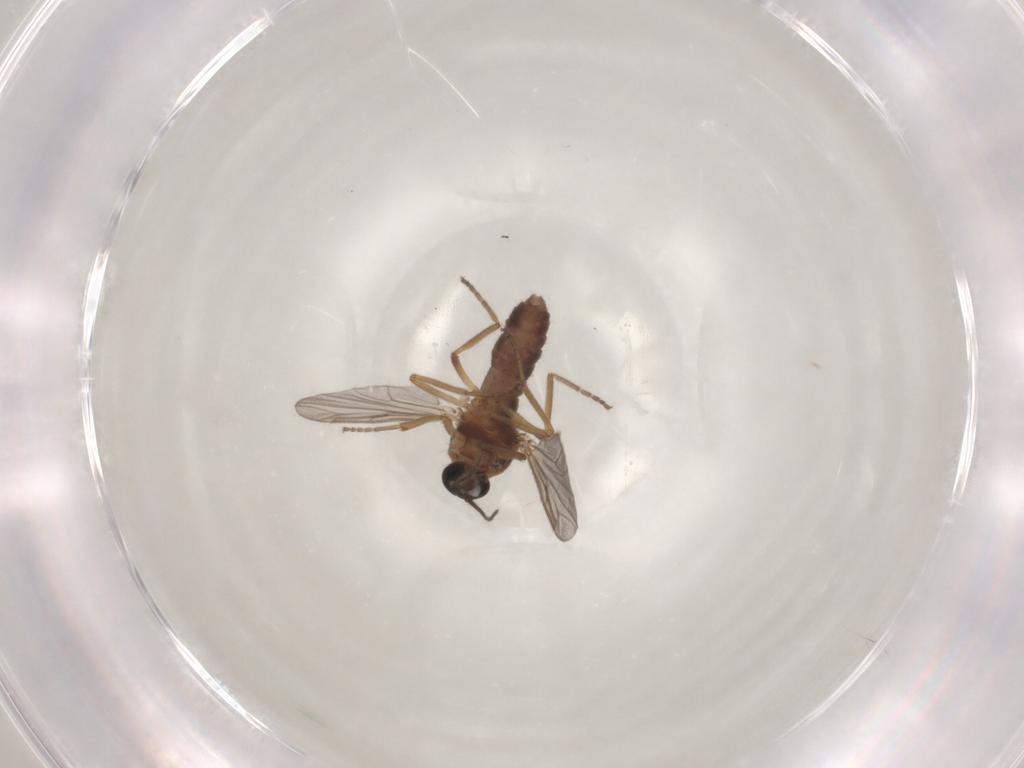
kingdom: Animalia
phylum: Arthropoda
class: Insecta
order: Diptera
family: Ceratopogonidae
